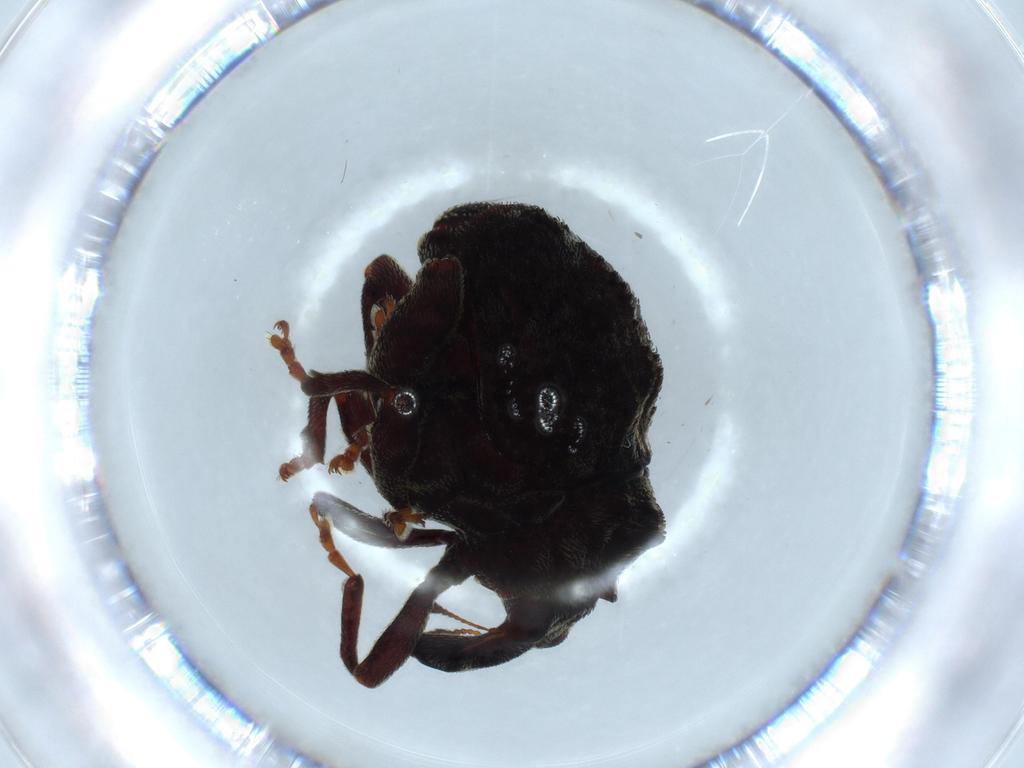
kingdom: Animalia
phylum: Arthropoda
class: Insecta
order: Coleoptera
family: Curculionidae
